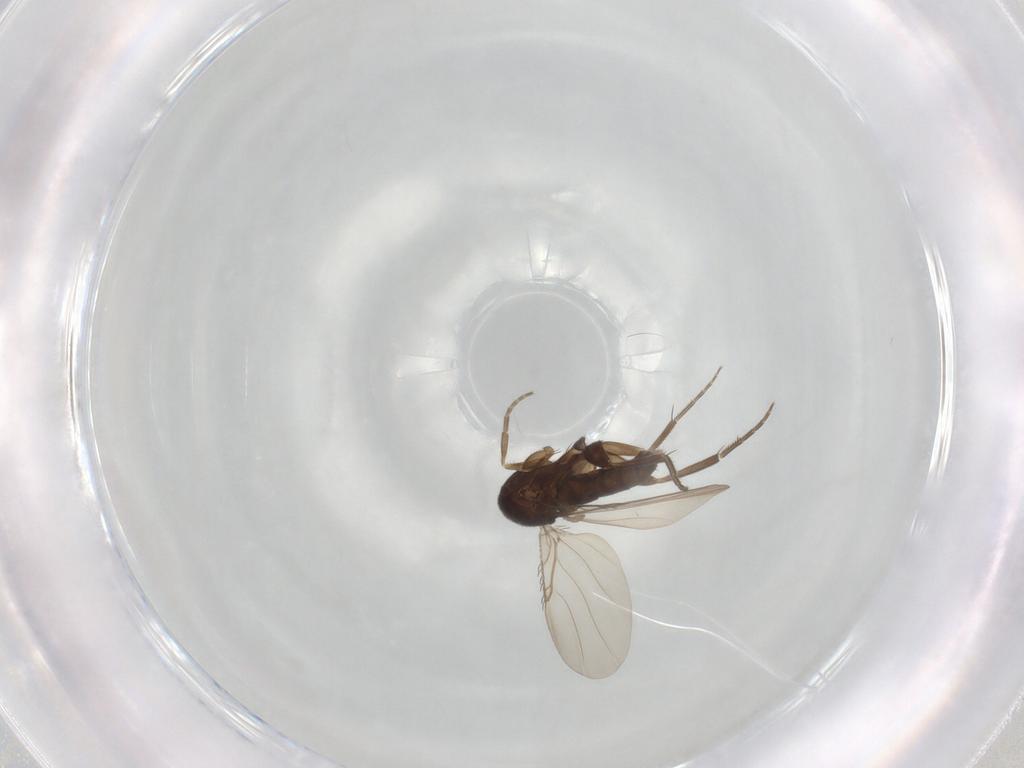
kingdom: Animalia
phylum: Arthropoda
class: Insecta
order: Diptera
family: Phoridae
